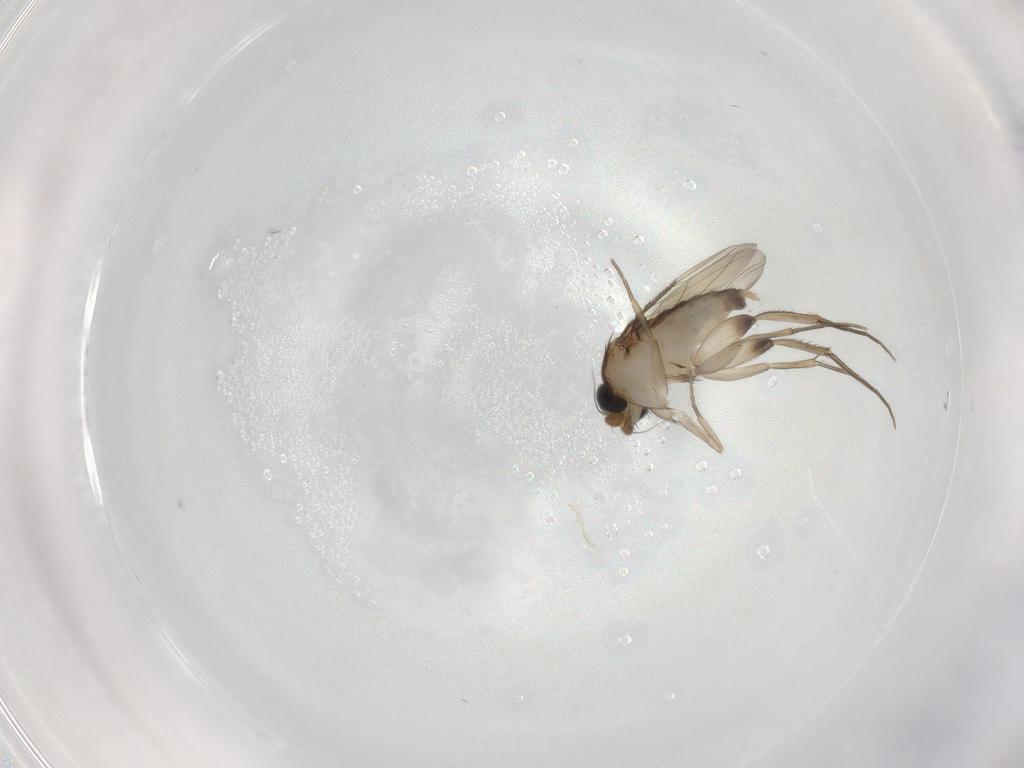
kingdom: Animalia
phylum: Arthropoda
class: Insecta
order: Diptera
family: Phoridae
